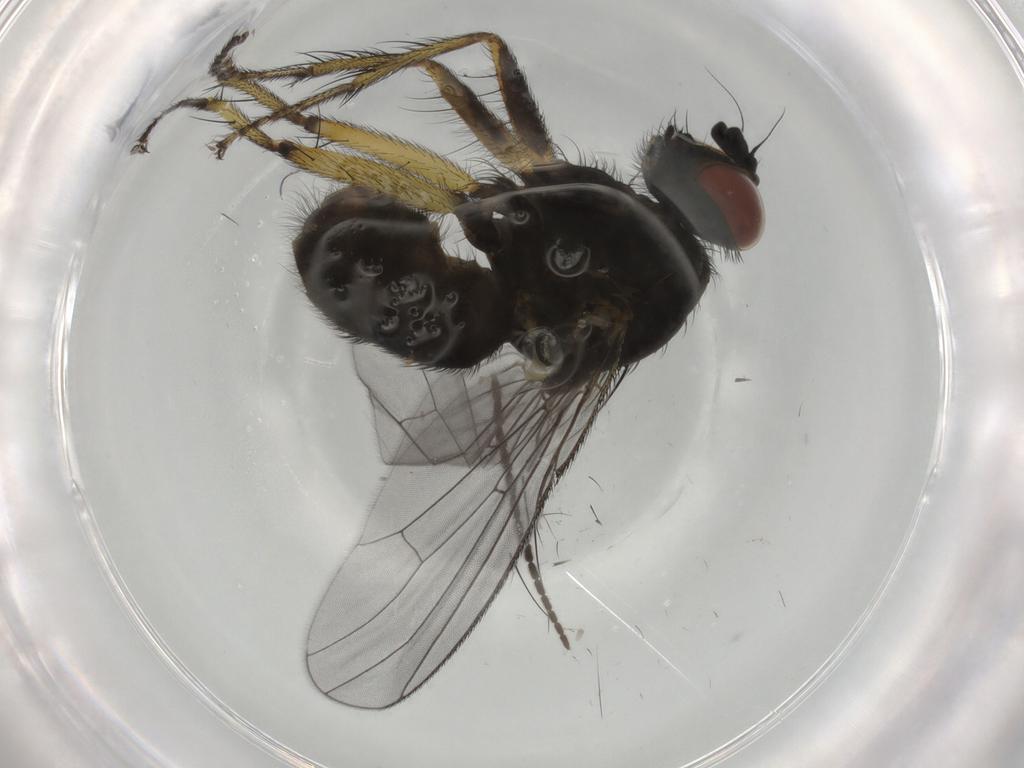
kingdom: Animalia
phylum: Arthropoda
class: Insecta
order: Diptera
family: Muscidae
